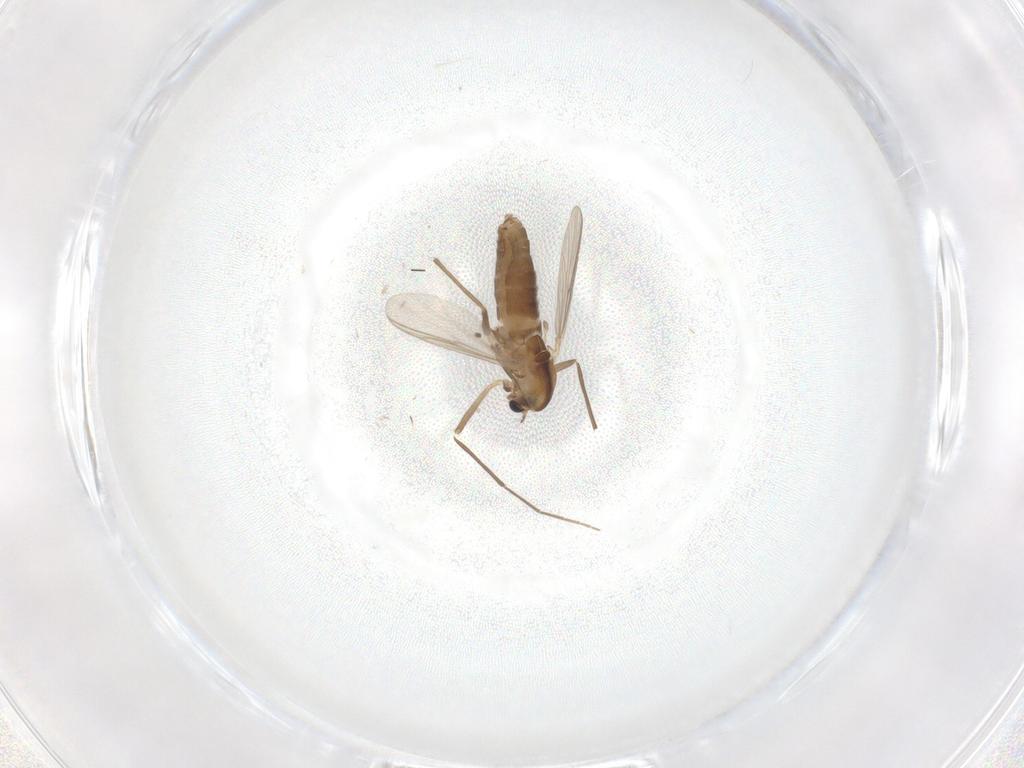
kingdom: Animalia
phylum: Arthropoda
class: Insecta
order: Diptera
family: Chironomidae
